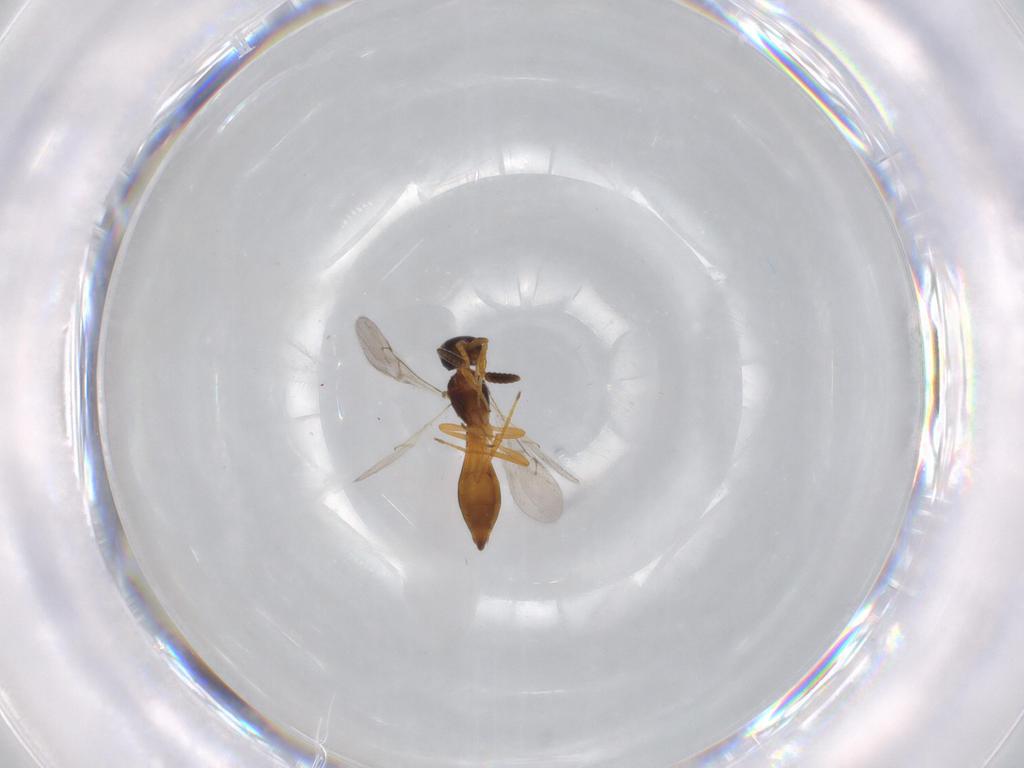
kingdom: Animalia
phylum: Arthropoda
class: Insecta
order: Hymenoptera
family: Scelionidae
